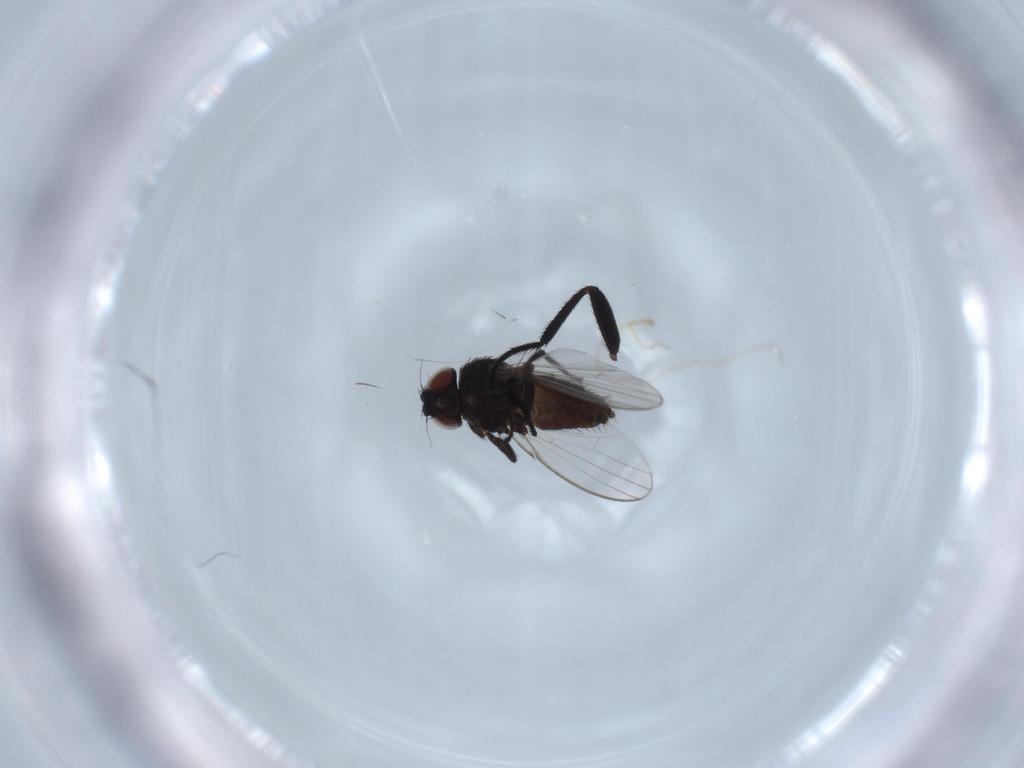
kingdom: Animalia
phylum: Arthropoda
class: Insecta
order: Diptera
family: Milichiidae
